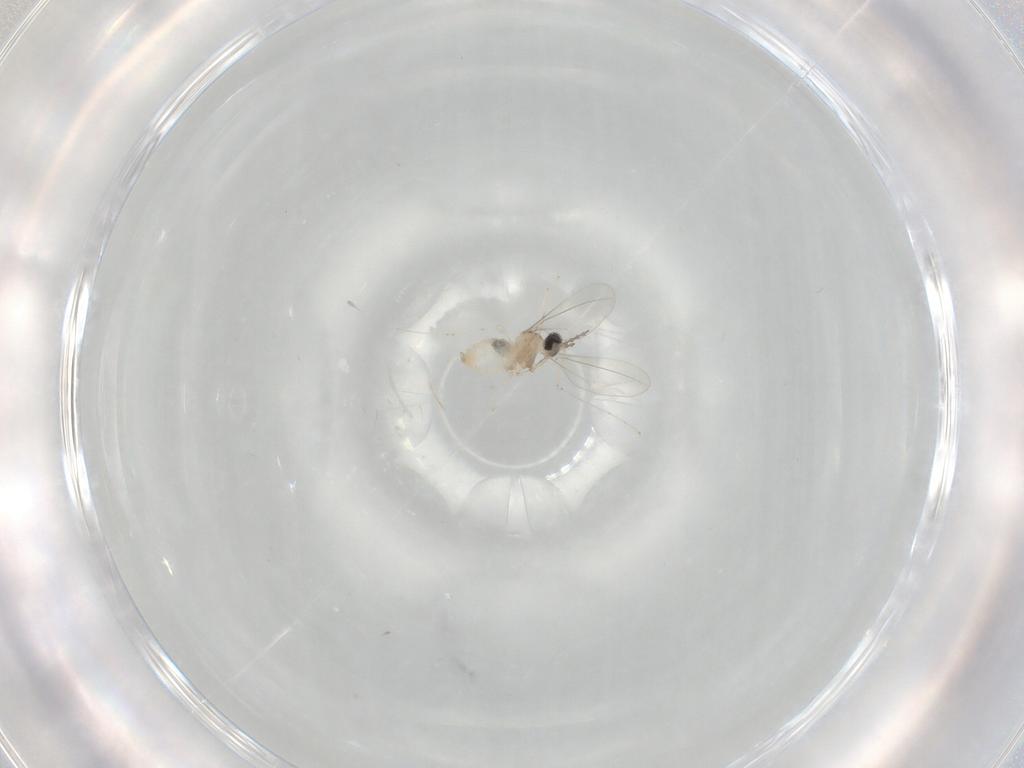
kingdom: Animalia
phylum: Arthropoda
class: Insecta
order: Diptera
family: Cecidomyiidae
